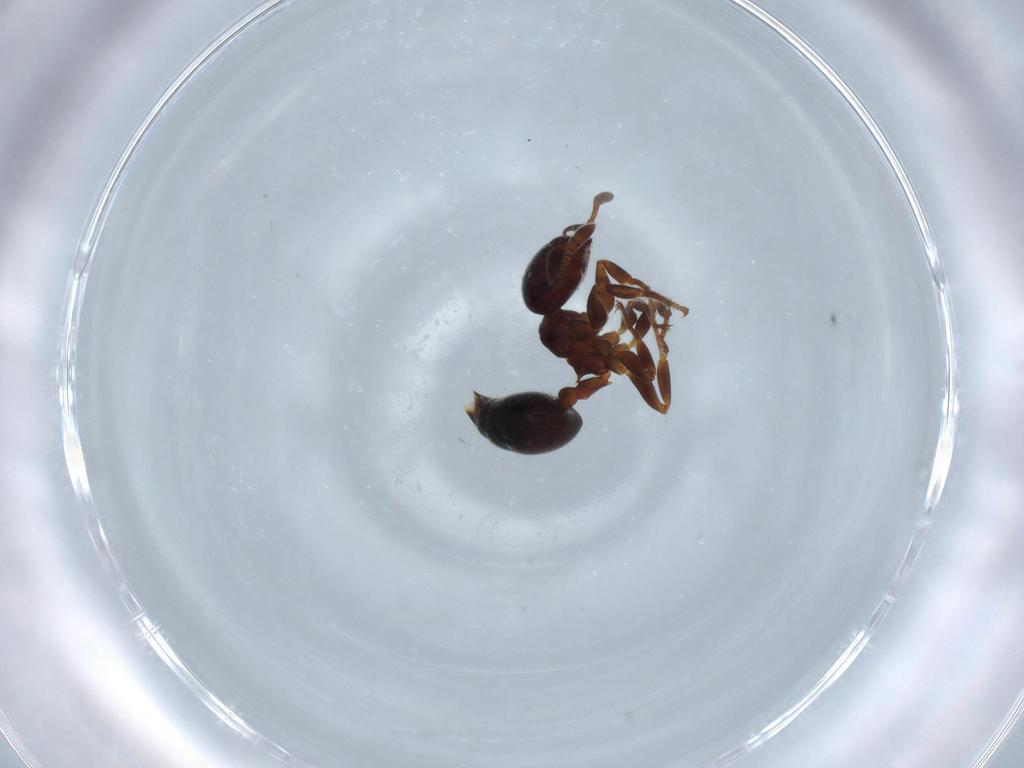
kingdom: Animalia
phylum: Arthropoda
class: Insecta
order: Hymenoptera
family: Formicidae
